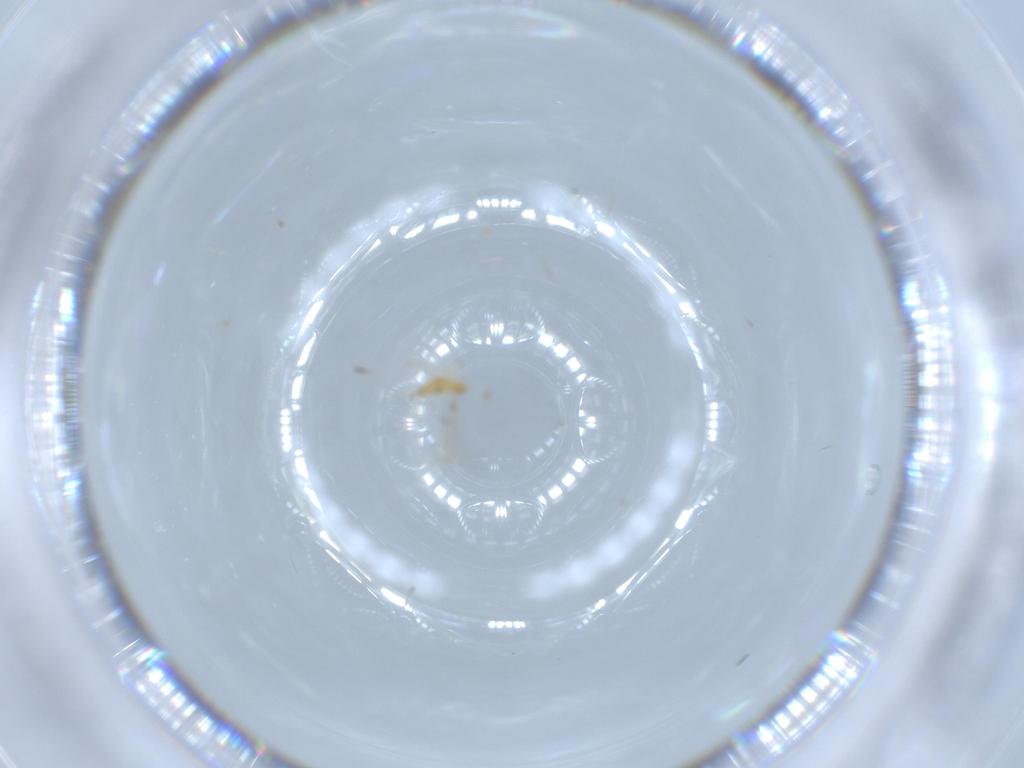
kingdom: Animalia
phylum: Arthropoda
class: Insecta
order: Hymenoptera
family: Mymaridae
